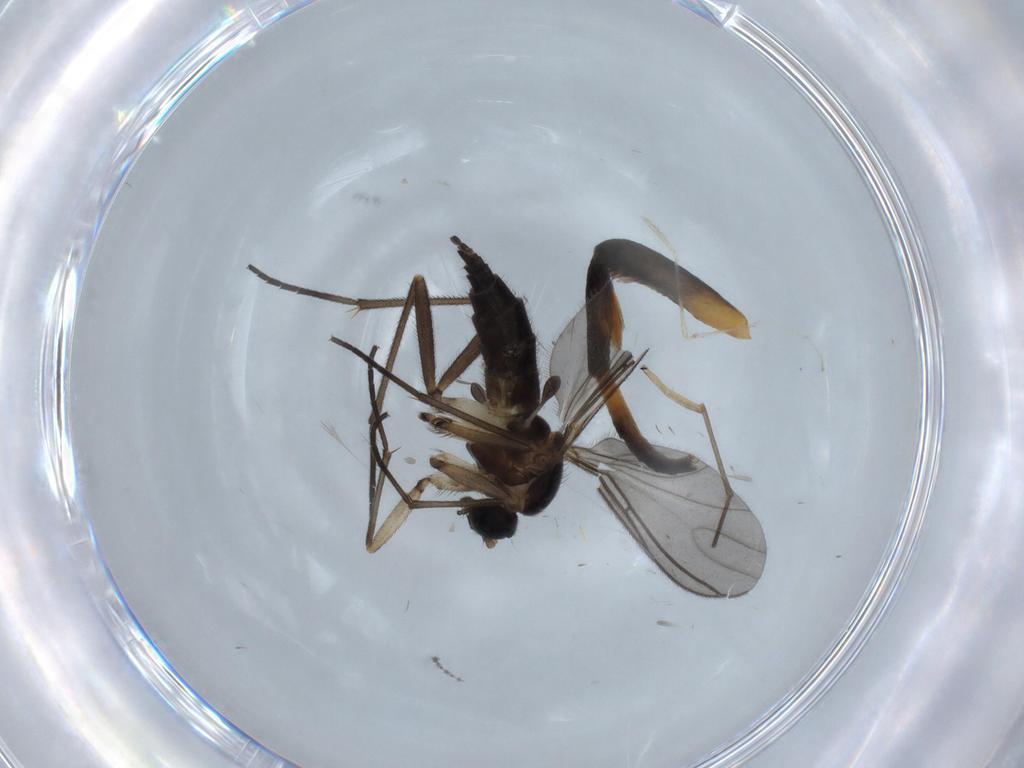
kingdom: Animalia
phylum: Arthropoda
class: Insecta
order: Diptera
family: Sciaridae
